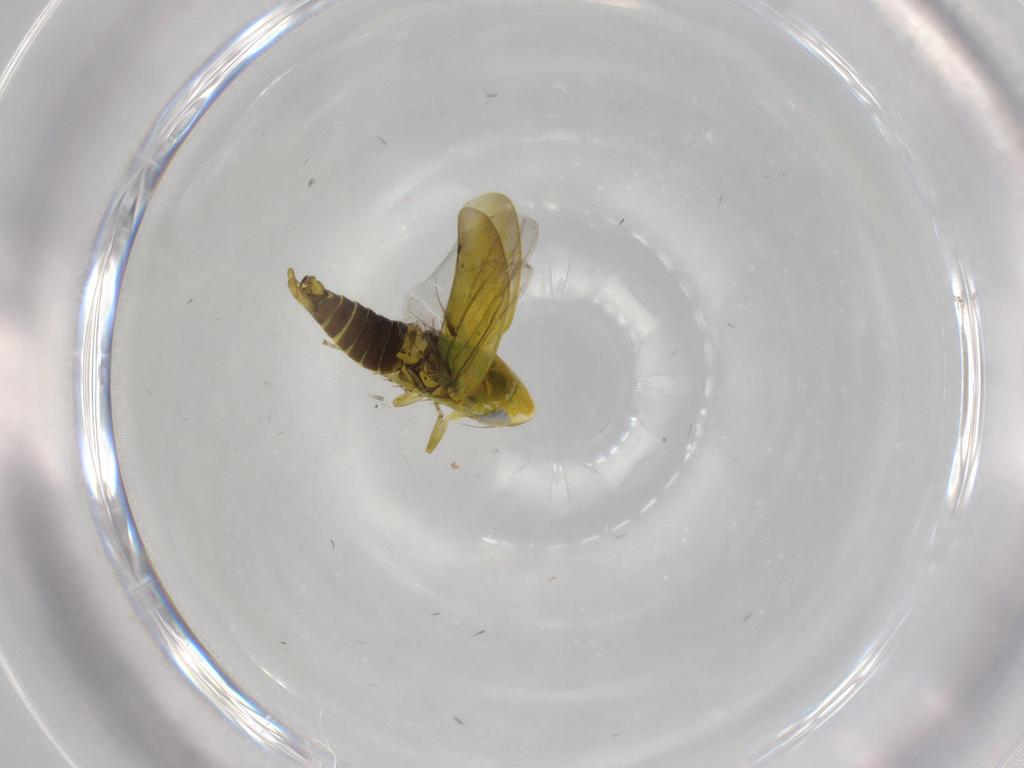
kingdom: Animalia
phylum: Arthropoda
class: Insecta
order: Hemiptera
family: Cicadellidae
